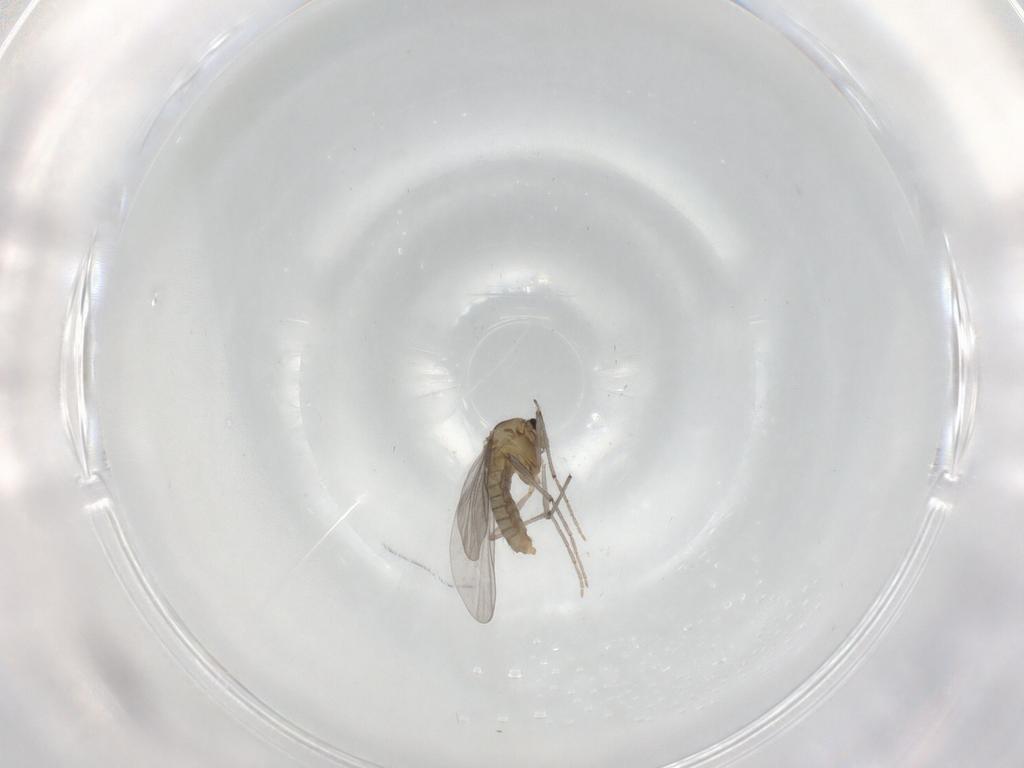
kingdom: Animalia
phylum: Arthropoda
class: Insecta
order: Diptera
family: Chironomidae
